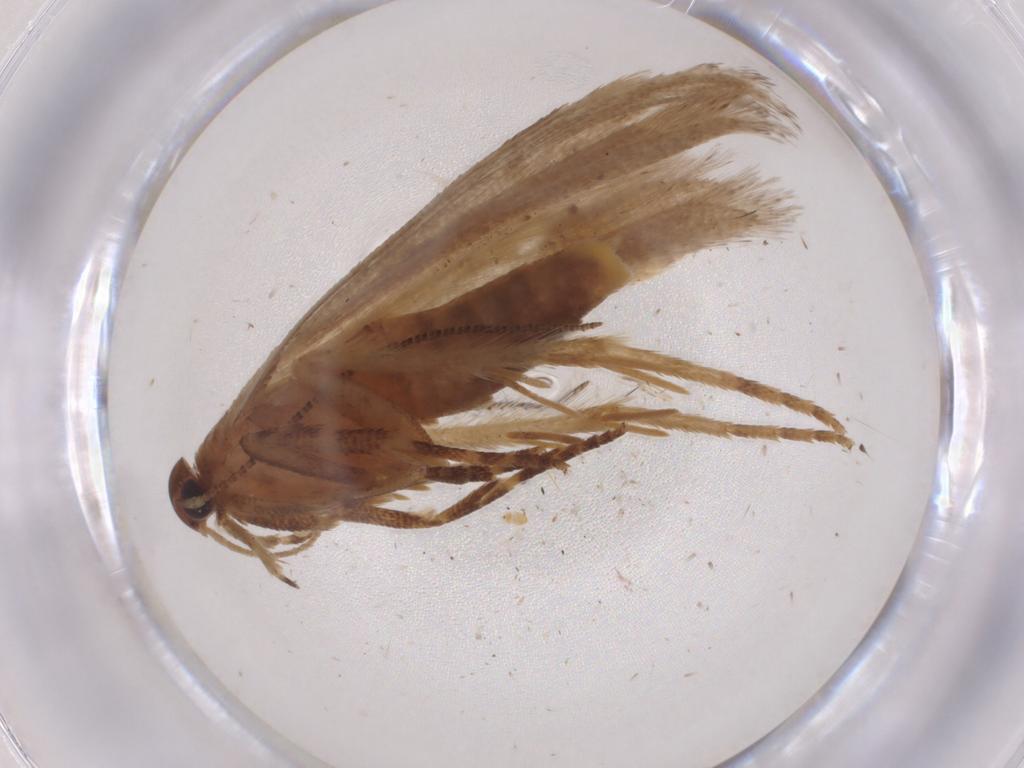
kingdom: Animalia
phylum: Arthropoda
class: Insecta
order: Lepidoptera
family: Gelechiidae
